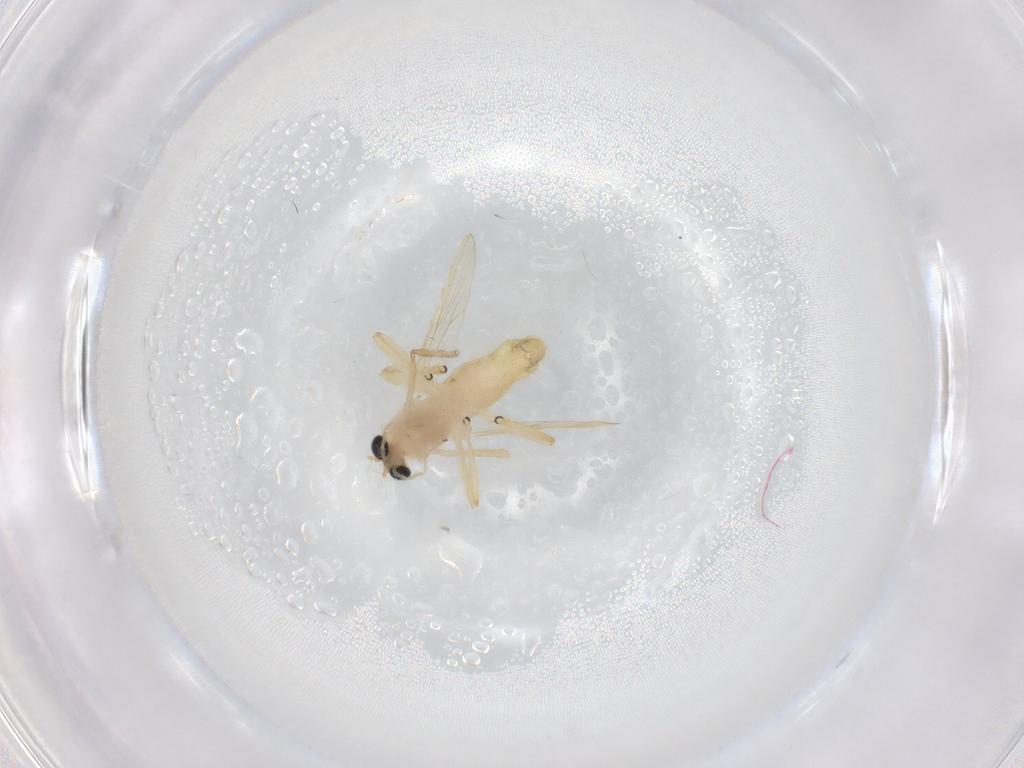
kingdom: Animalia
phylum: Arthropoda
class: Insecta
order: Diptera
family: Chironomidae
